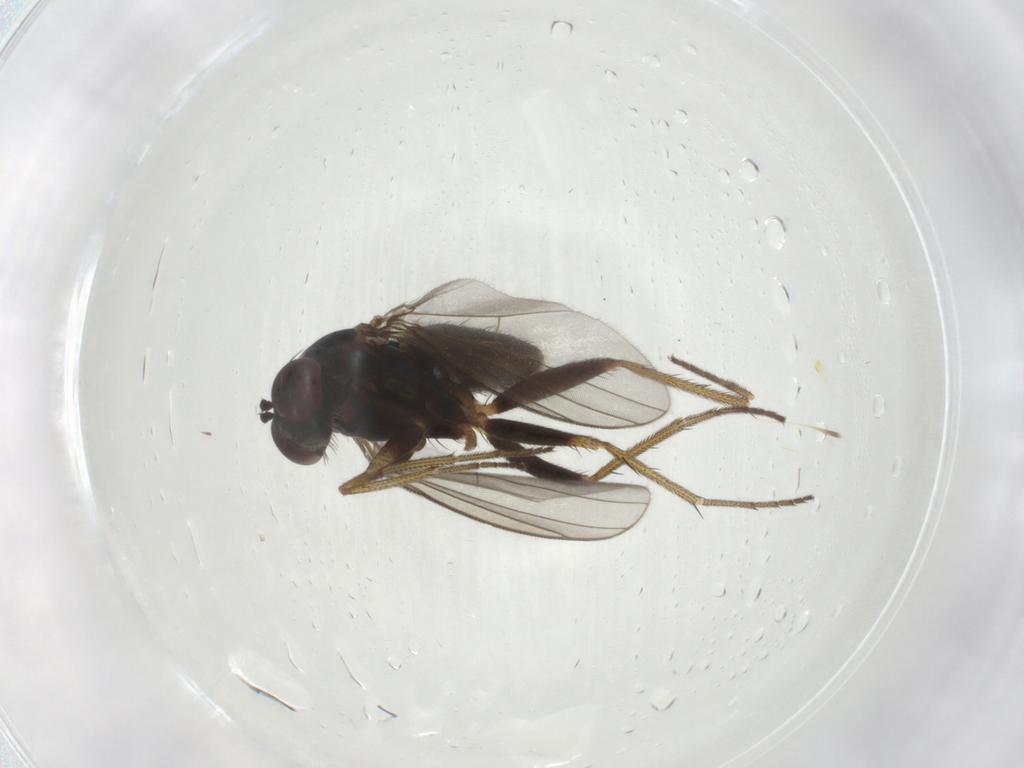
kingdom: Animalia
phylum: Arthropoda
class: Insecta
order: Diptera
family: Dolichopodidae
